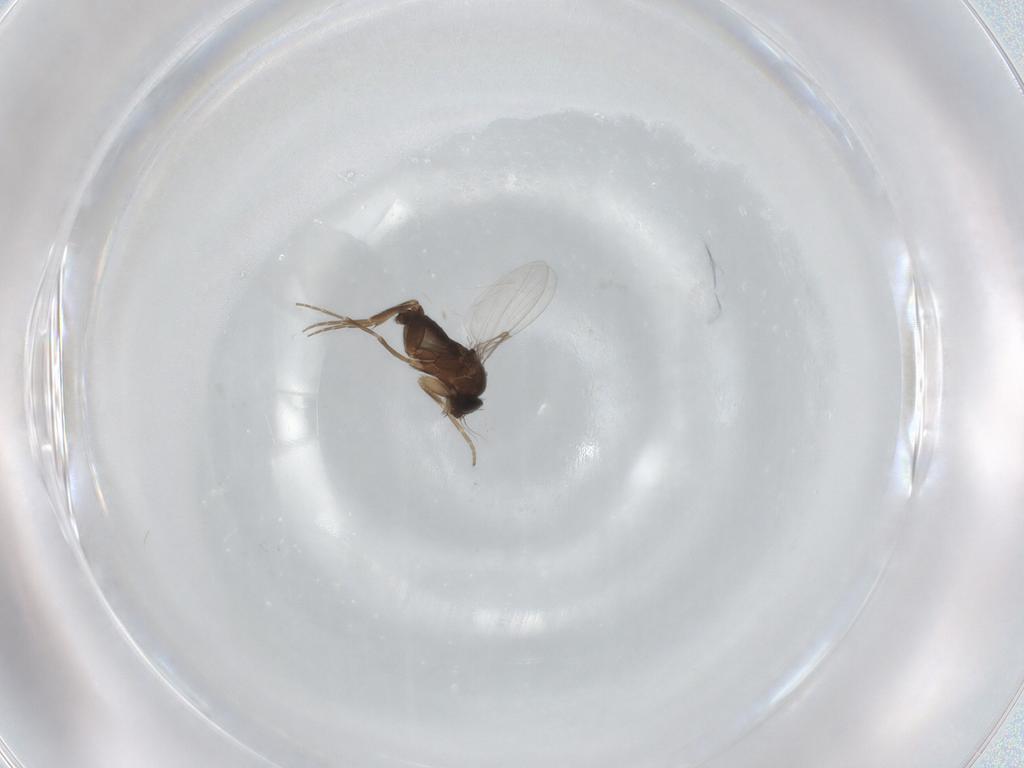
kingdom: Animalia
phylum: Arthropoda
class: Insecta
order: Diptera
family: Phoridae
